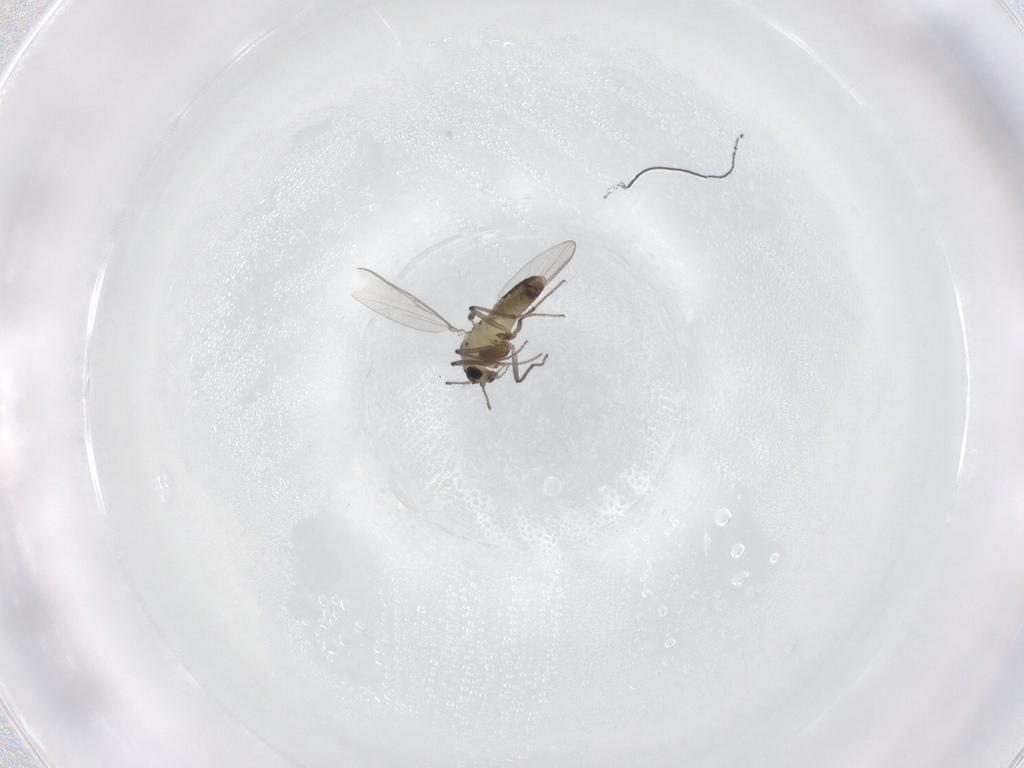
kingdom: Animalia
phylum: Arthropoda
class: Insecta
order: Diptera
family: Chironomidae
